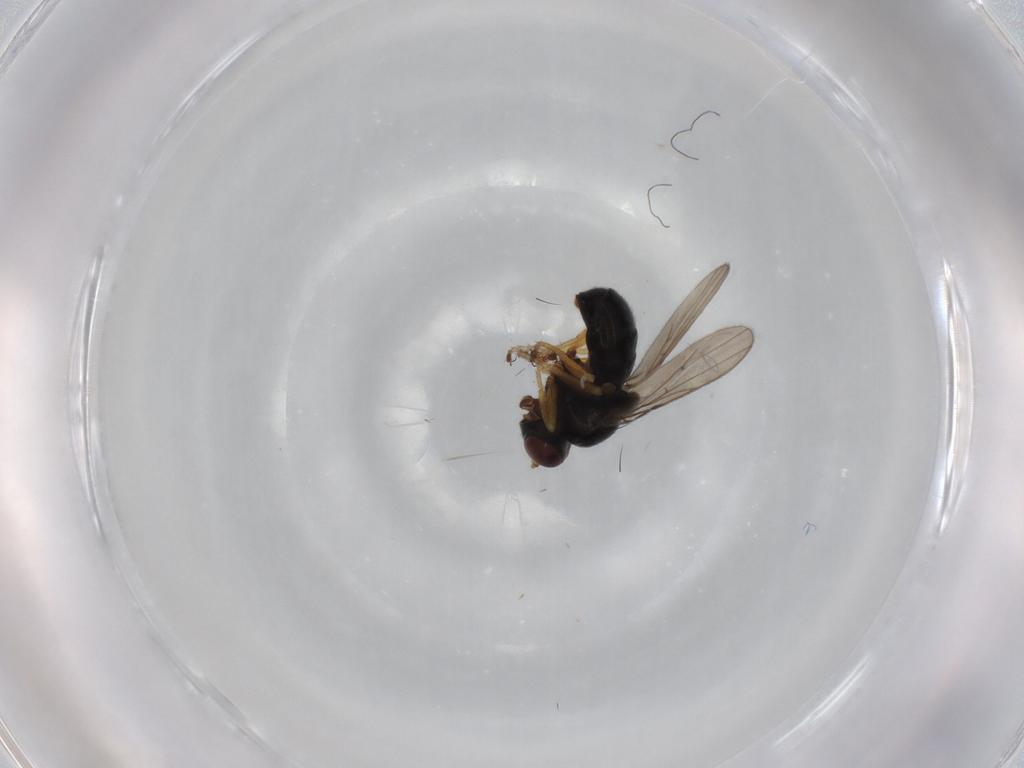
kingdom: Animalia
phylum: Arthropoda
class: Insecta
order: Diptera
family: Ephydridae
